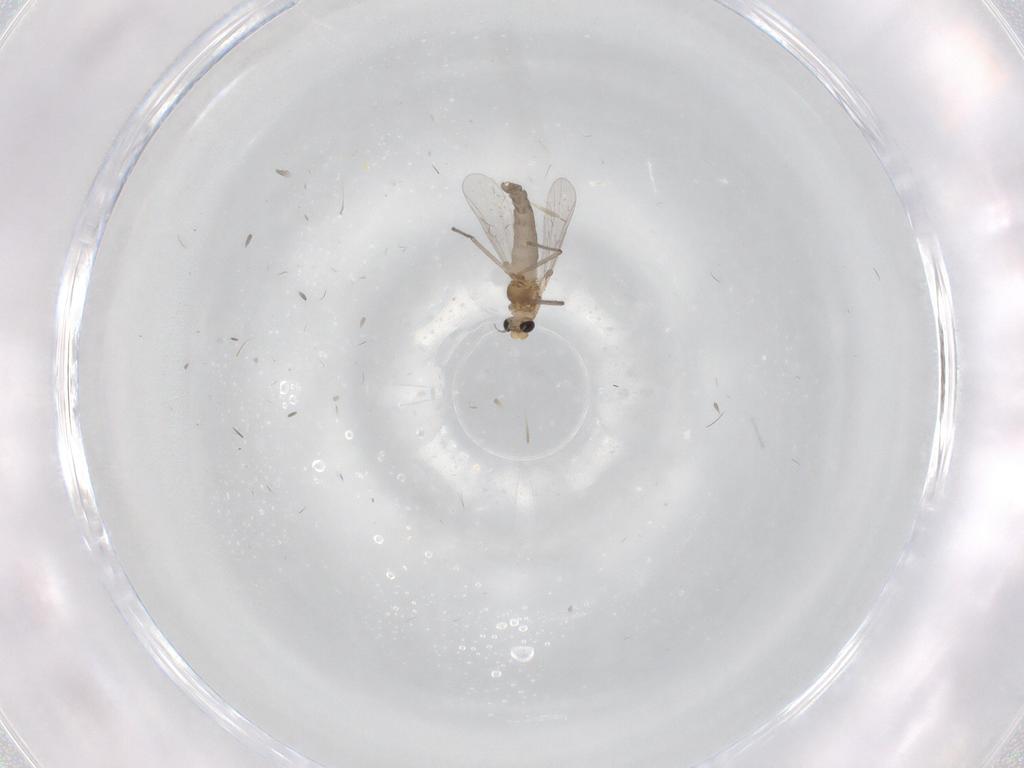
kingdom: Animalia
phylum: Arthropoda
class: Insecta
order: Diptera
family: Chironomidae
